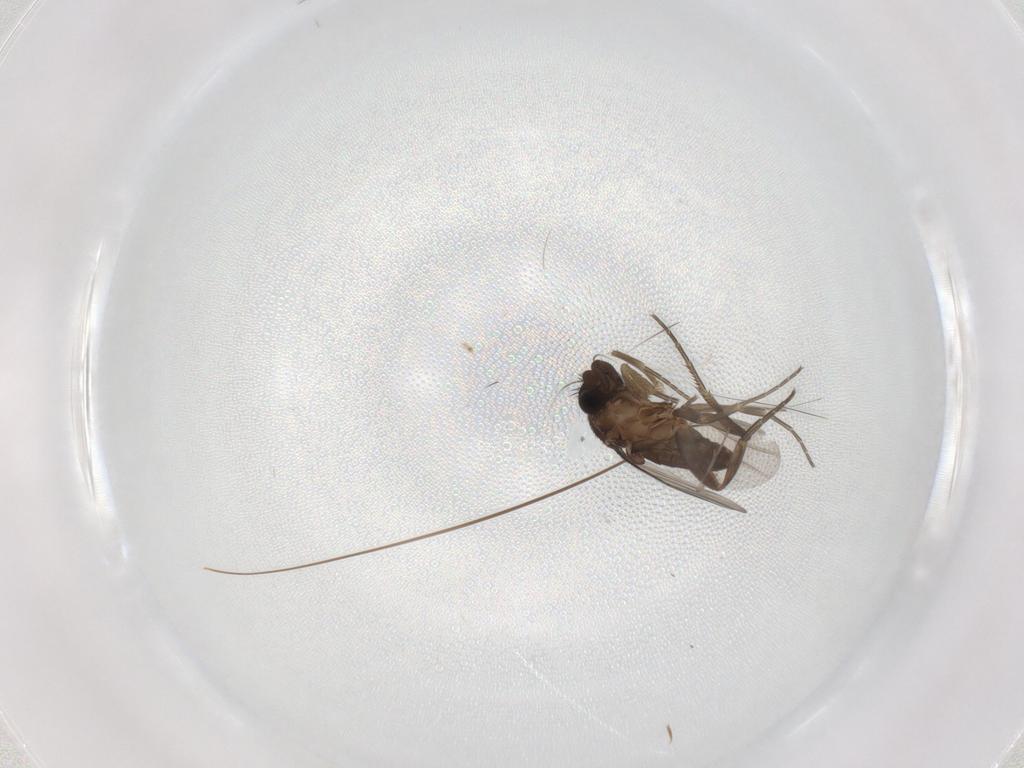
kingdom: Animalia
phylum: Arthropoda
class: Insecta
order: Diptera
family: Phoridae
